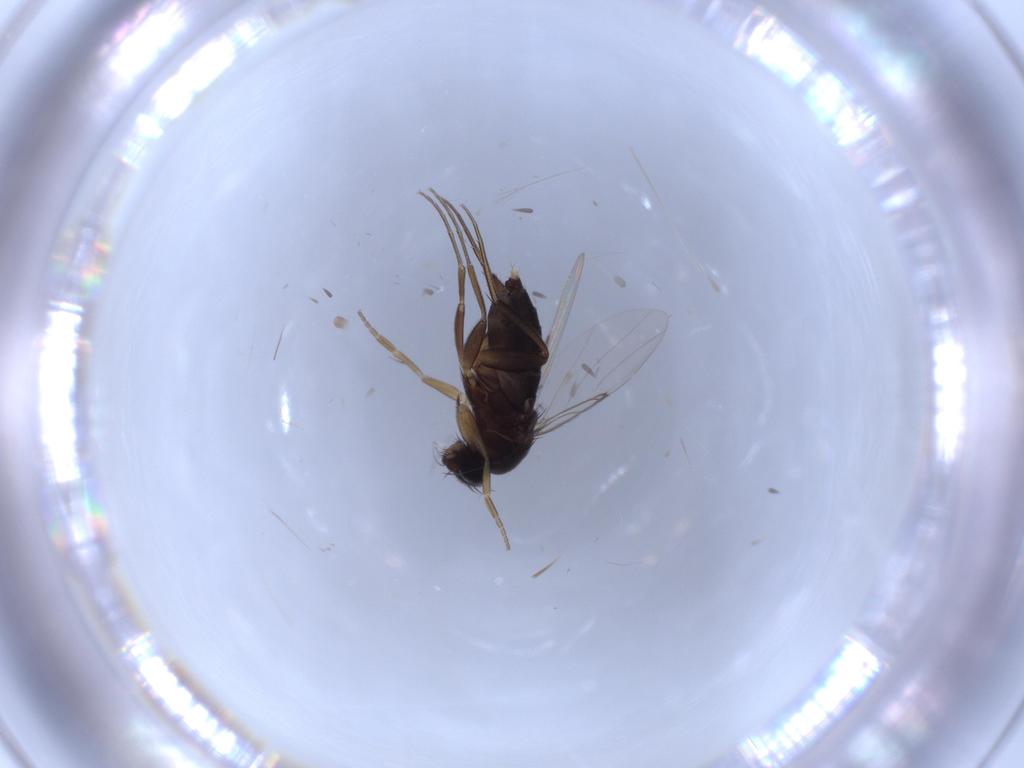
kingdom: Animalia
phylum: Arthropoda
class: Insecta
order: Diptera
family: Phoridae
